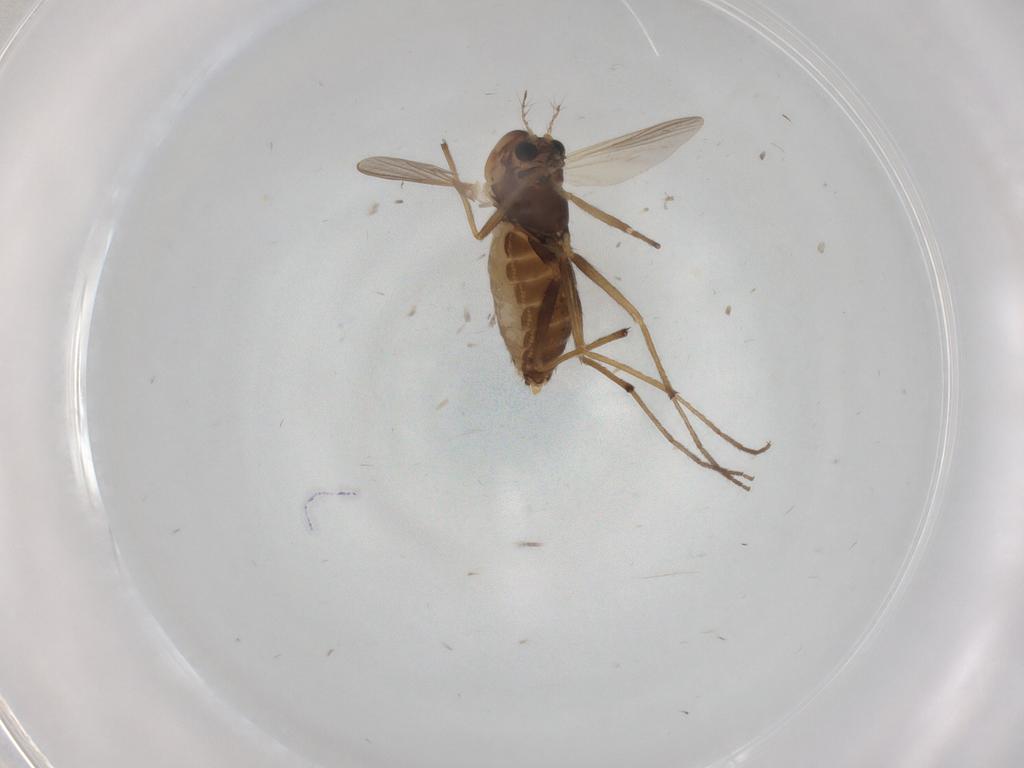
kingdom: Animalia
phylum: Arthropoda
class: Insecta
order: Diptera
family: Chironomidae
